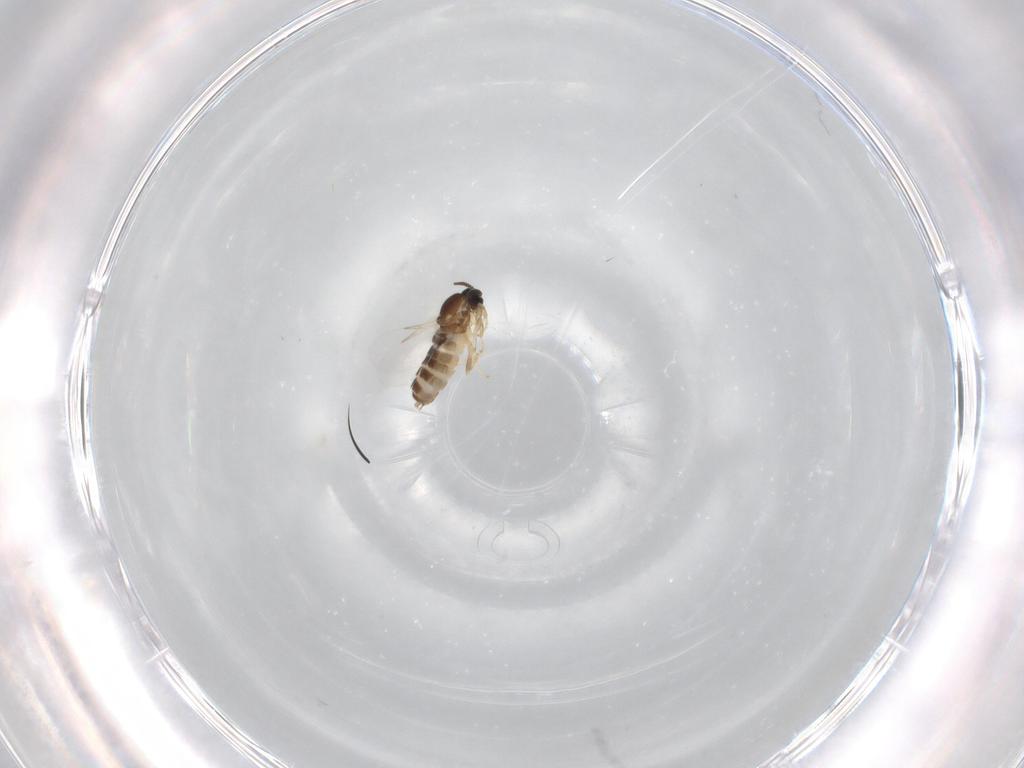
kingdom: Animalia
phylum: Arthropoda
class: Insecta
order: Diptera
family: Scatopsidae
